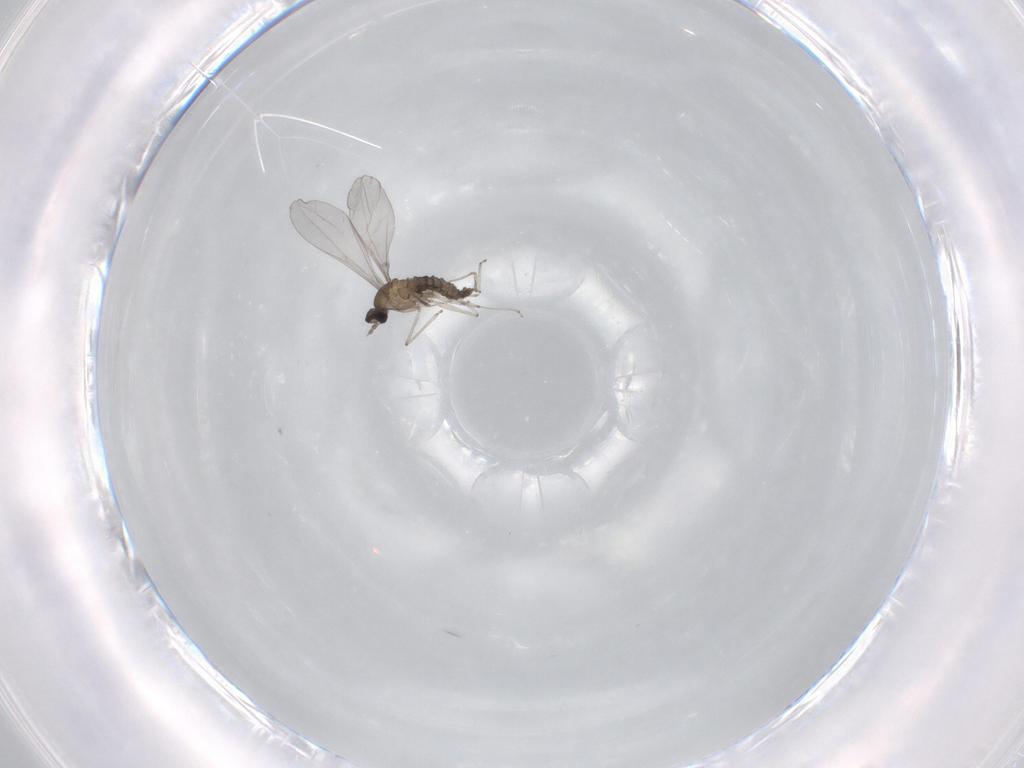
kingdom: Animalia
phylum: Arthropoda
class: Insecta
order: Diptera
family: Cecidomyiidae
